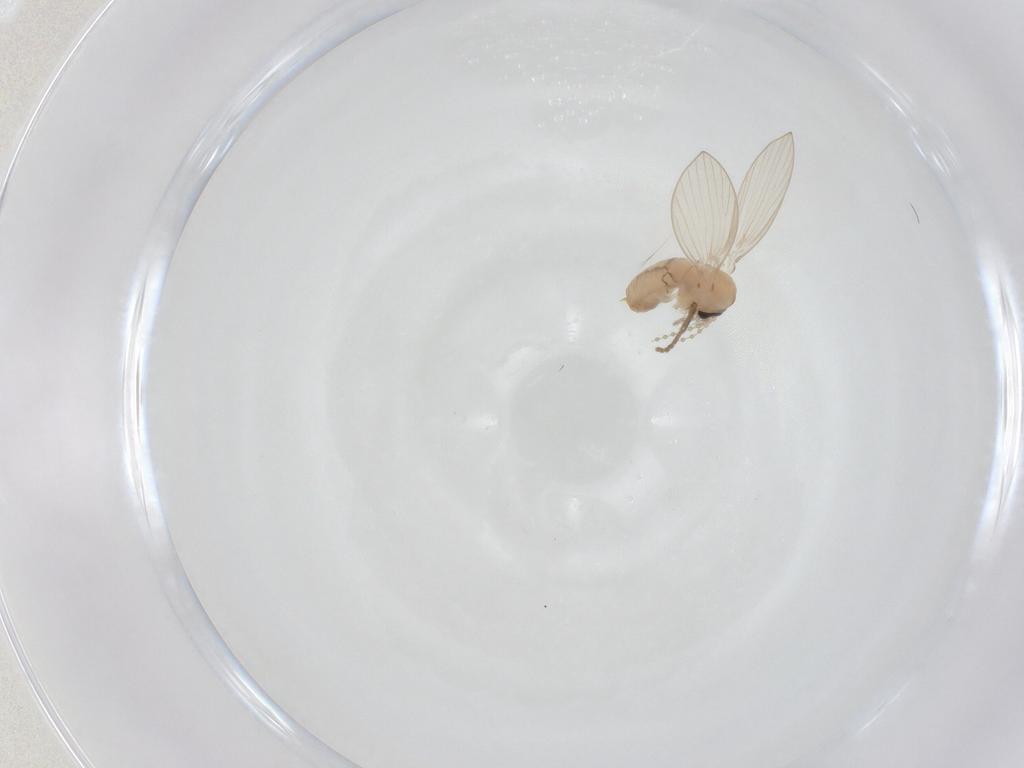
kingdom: Animalia
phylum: Arthropoda
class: Insecta
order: Diptera
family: Psychodidae
